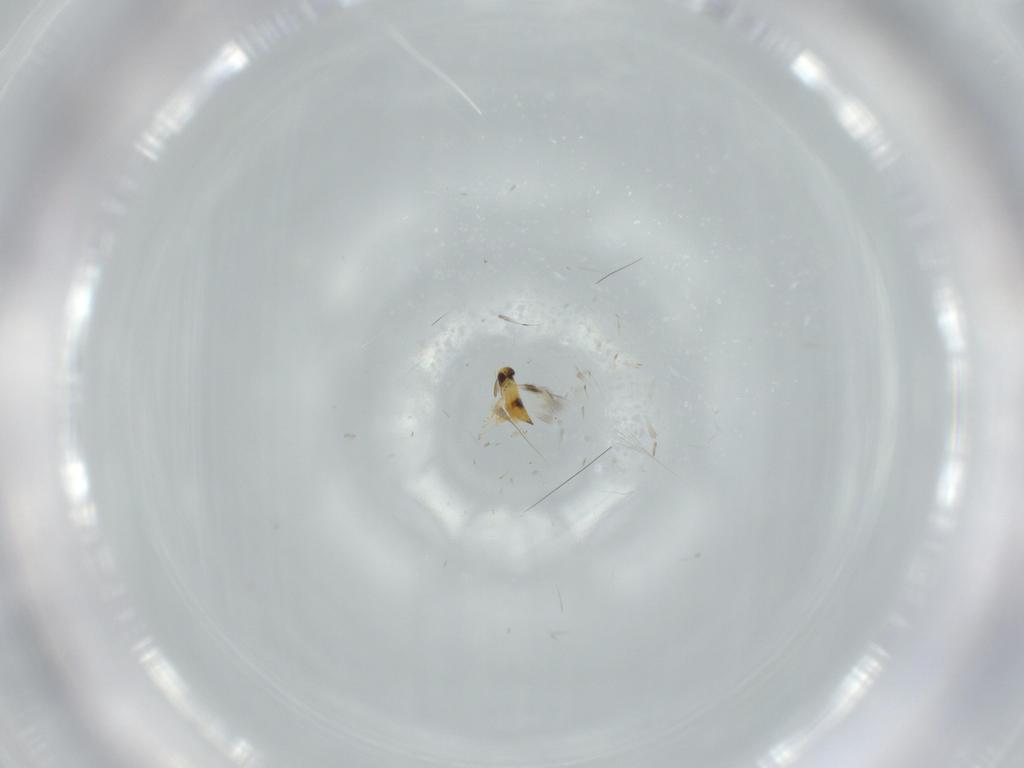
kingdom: Animalia
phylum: Arthropoda
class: Insecta
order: Hymenoptera
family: Aphelinidae
